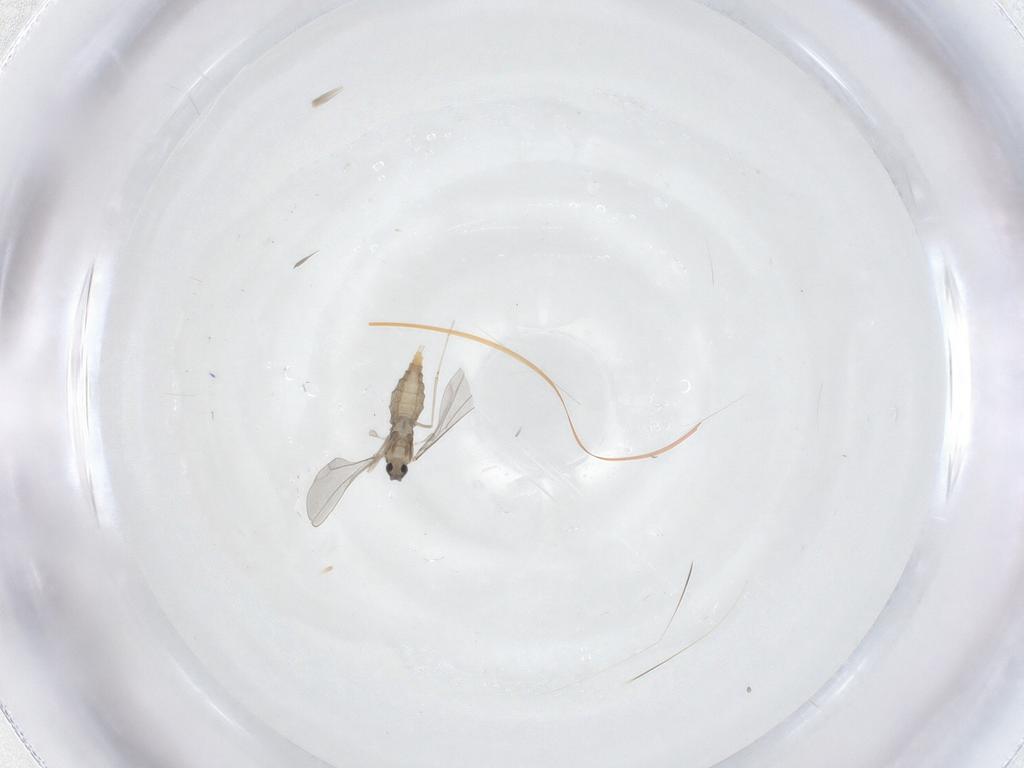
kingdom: Animalia
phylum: Arthropoda
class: Insecta
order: Diptera
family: Cecidomyiidae
